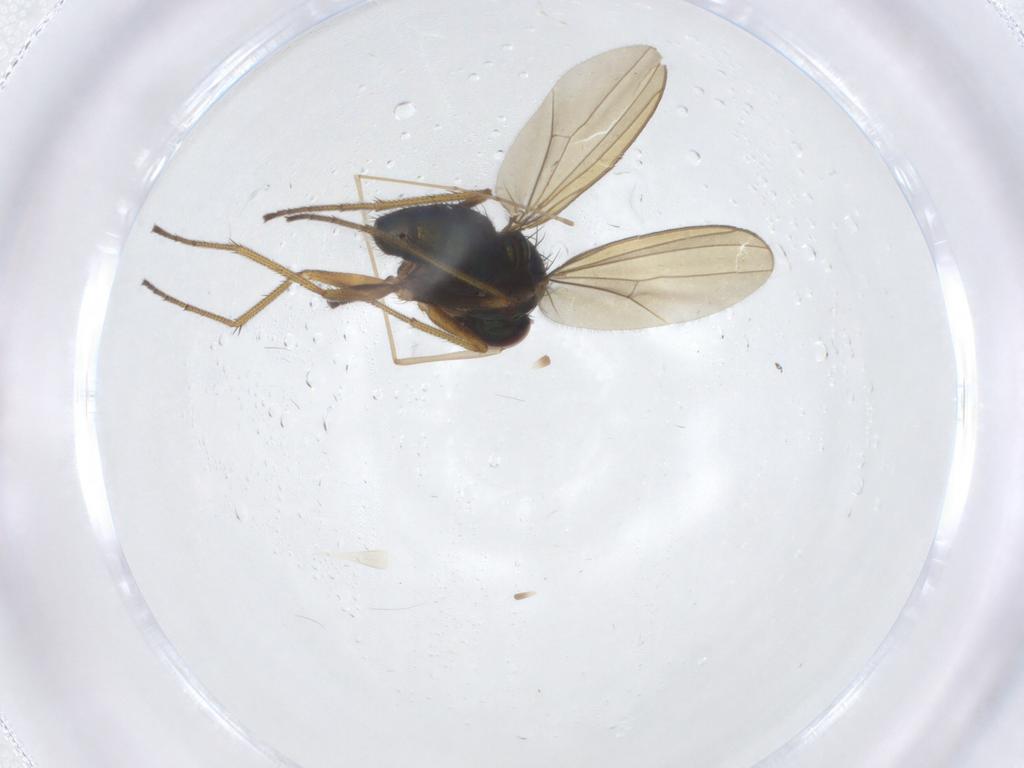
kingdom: Animalia
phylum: Arthropoda
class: Insecta
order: Diptera
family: Dolichopodidae
